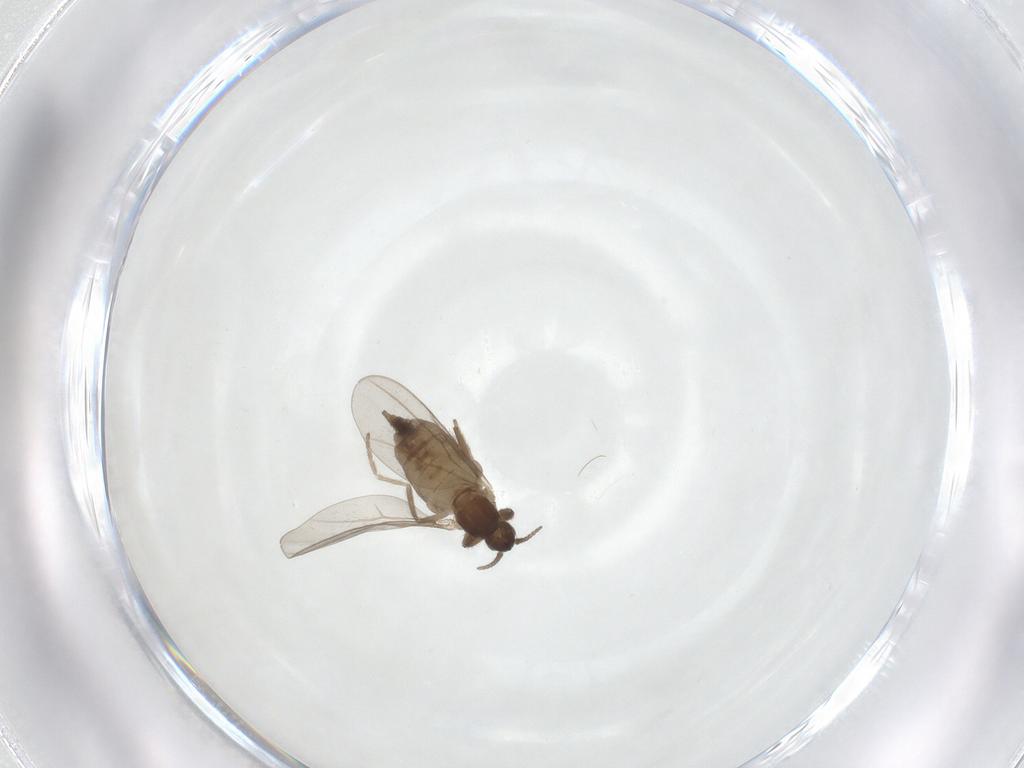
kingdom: Animalia
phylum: Arthropoda
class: Insecta
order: Diptera
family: Cecidomyiidae
